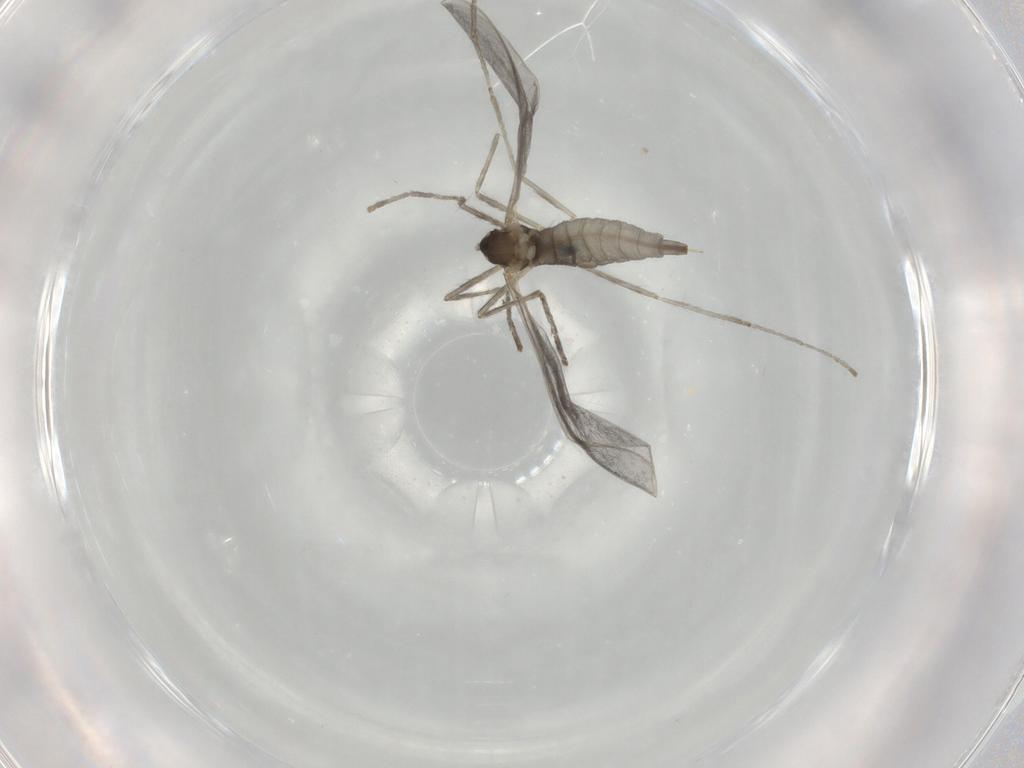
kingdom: Animalia
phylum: Arthropoda
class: Insecta
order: Diptera
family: Cecidomyiidae
